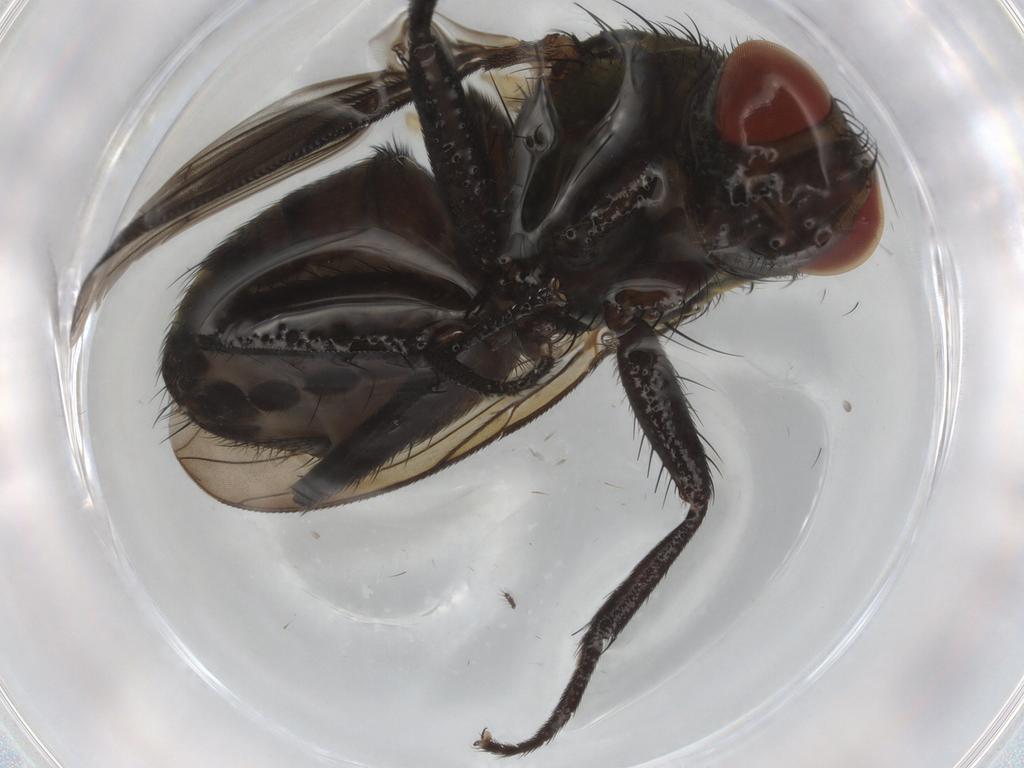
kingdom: Animalia
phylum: Arthropoda
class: Insecta
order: Diptera
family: Sarcophagidae
